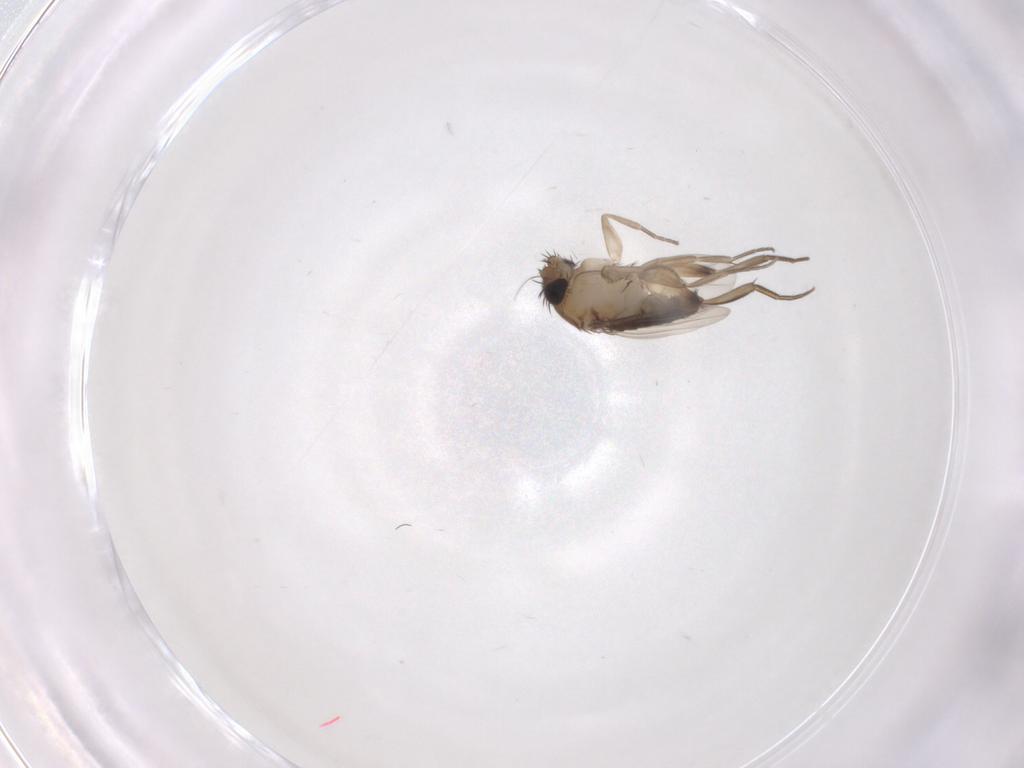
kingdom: Animalia
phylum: Arthropoda
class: Insecta
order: Diptera
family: Phoridae
